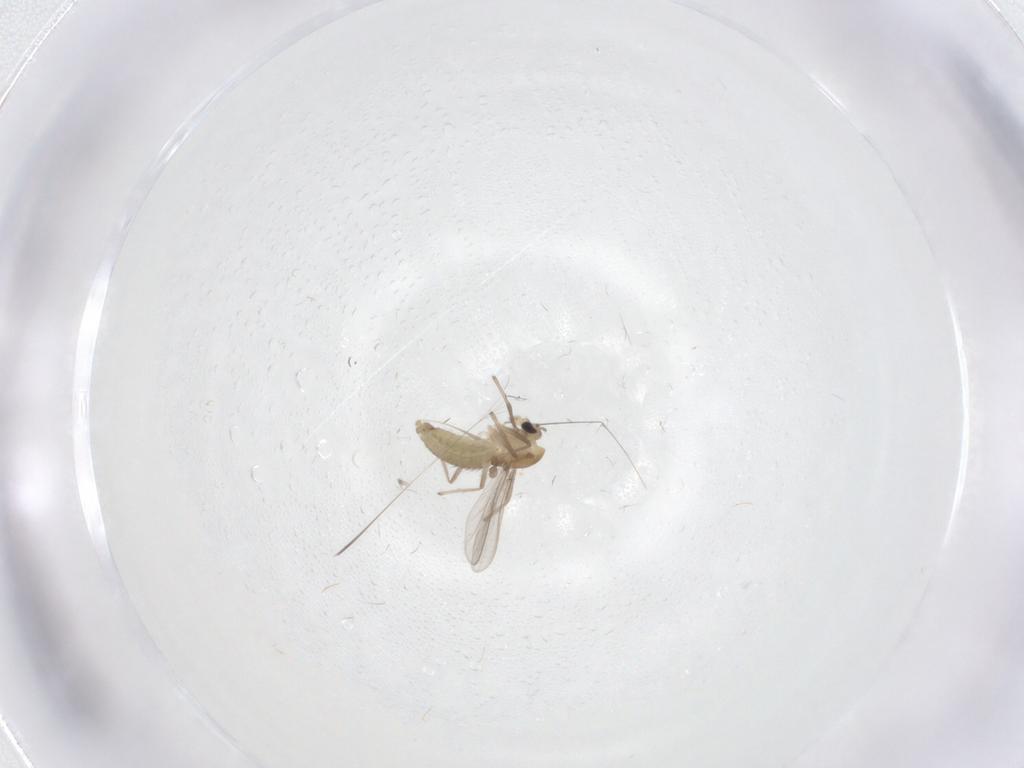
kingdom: Animalia
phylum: Arthropoda
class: Insecta
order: Diptera
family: Chironomidae
